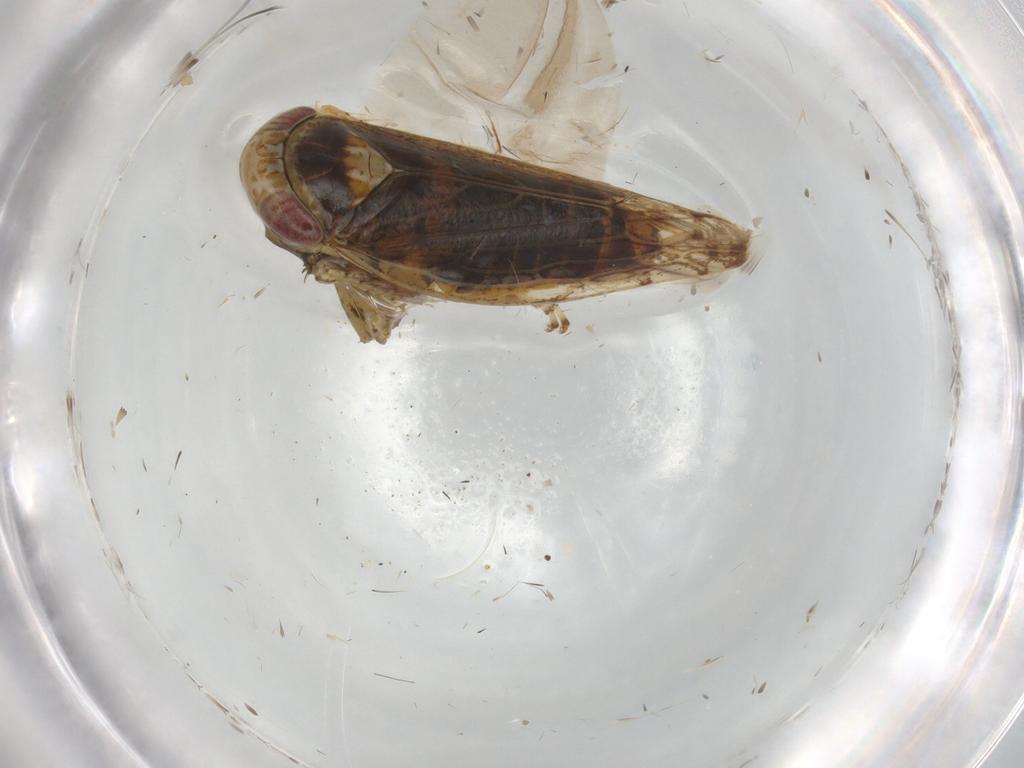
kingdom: Animalia
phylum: Arthropoda
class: Insecta
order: Hemiptera
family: Cicadellidae
